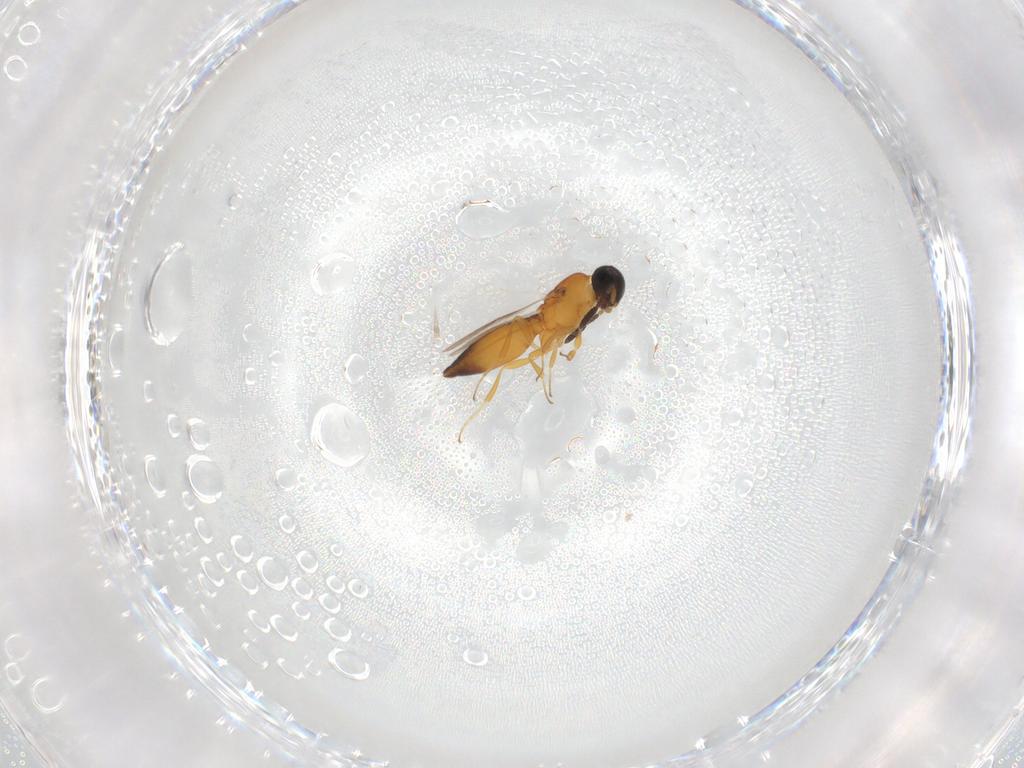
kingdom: Animalia
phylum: Arthropoda
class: Insecta
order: Hymenoptera
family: Scelionidae
